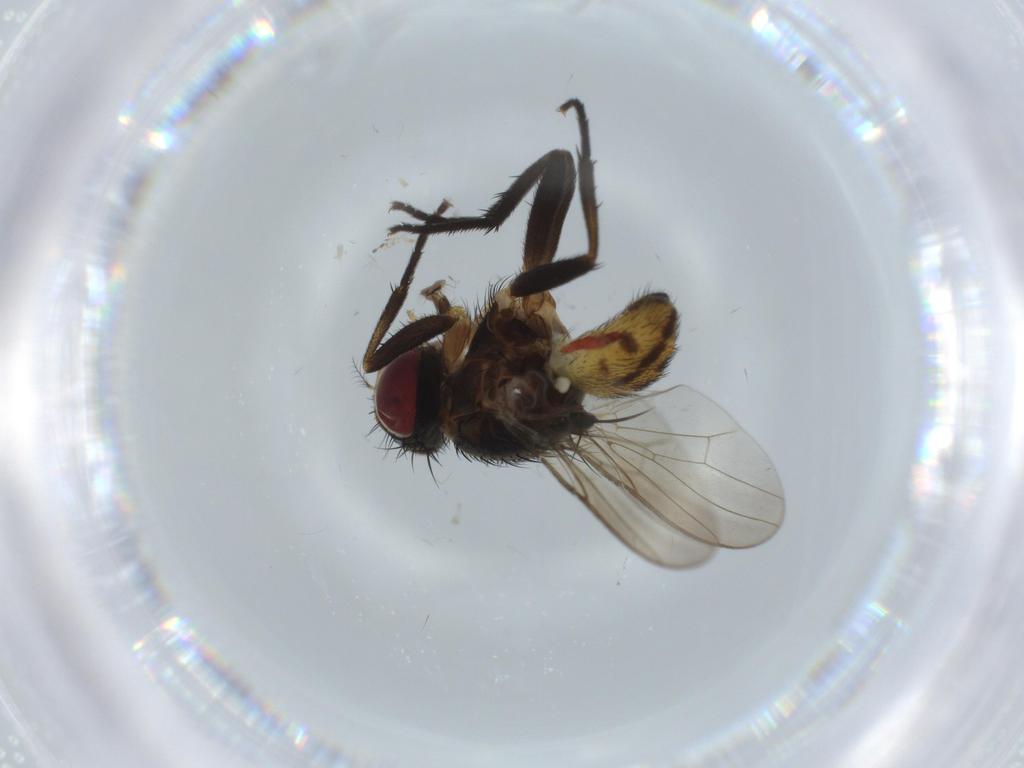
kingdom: Animalia
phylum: Arthropoda
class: Insecta
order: Diptera
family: Anthomyiidae
